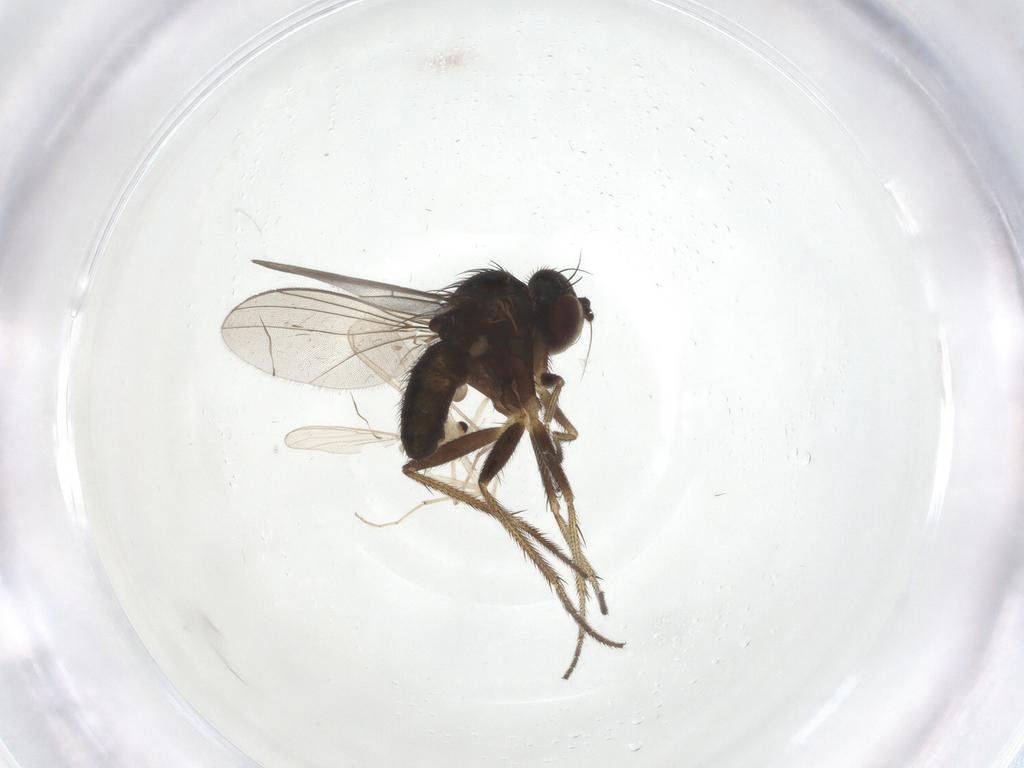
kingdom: Animalia
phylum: Arthropoda
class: Insecta
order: Diptera
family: Dolichopodidae
